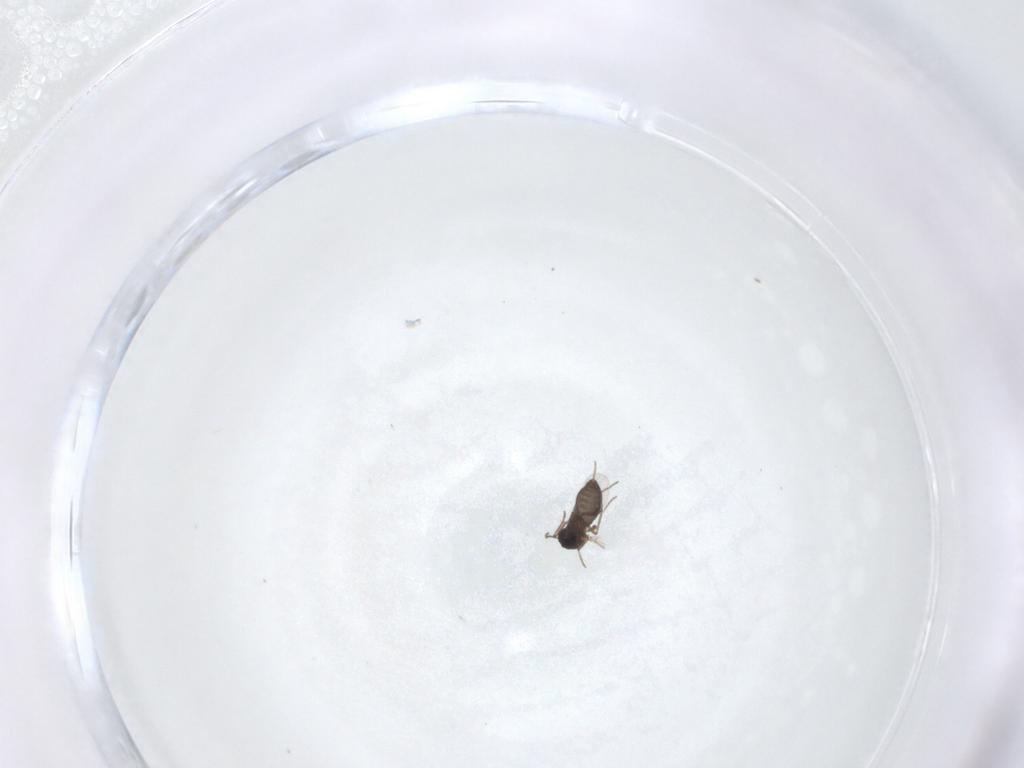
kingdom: Animalia
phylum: Arthropoda
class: Insecta
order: Diptera
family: Ceratopogonidae
